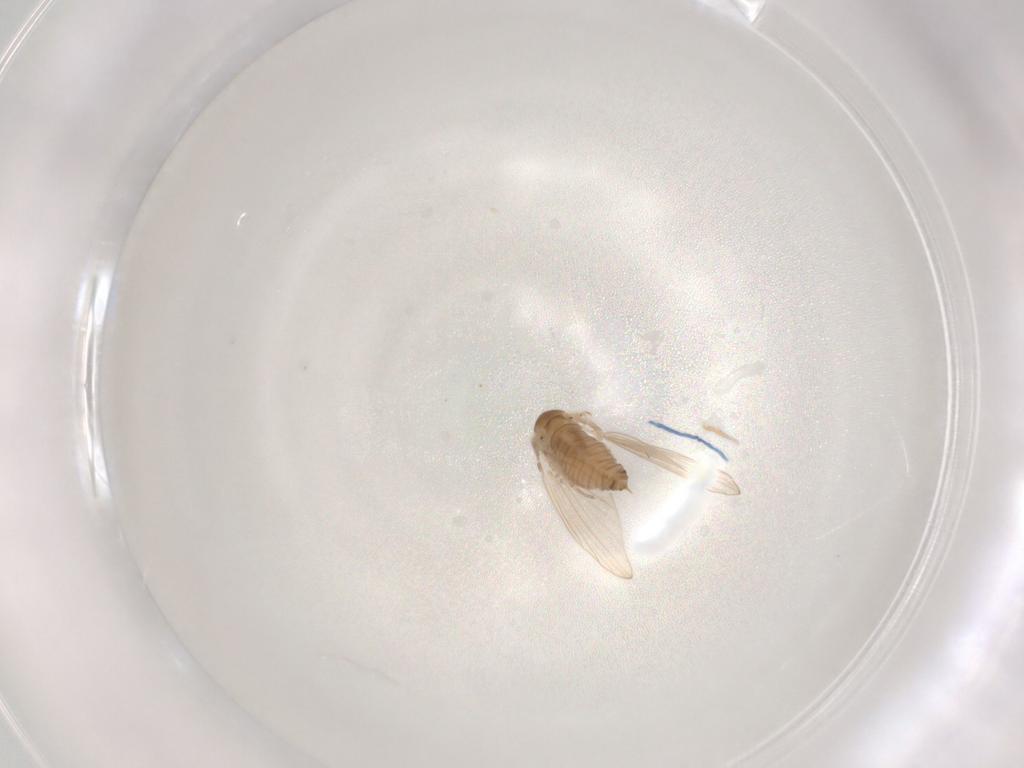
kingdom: Animalia
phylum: Arthropoda
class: Insecta
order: Diptera
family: Psychodidae
